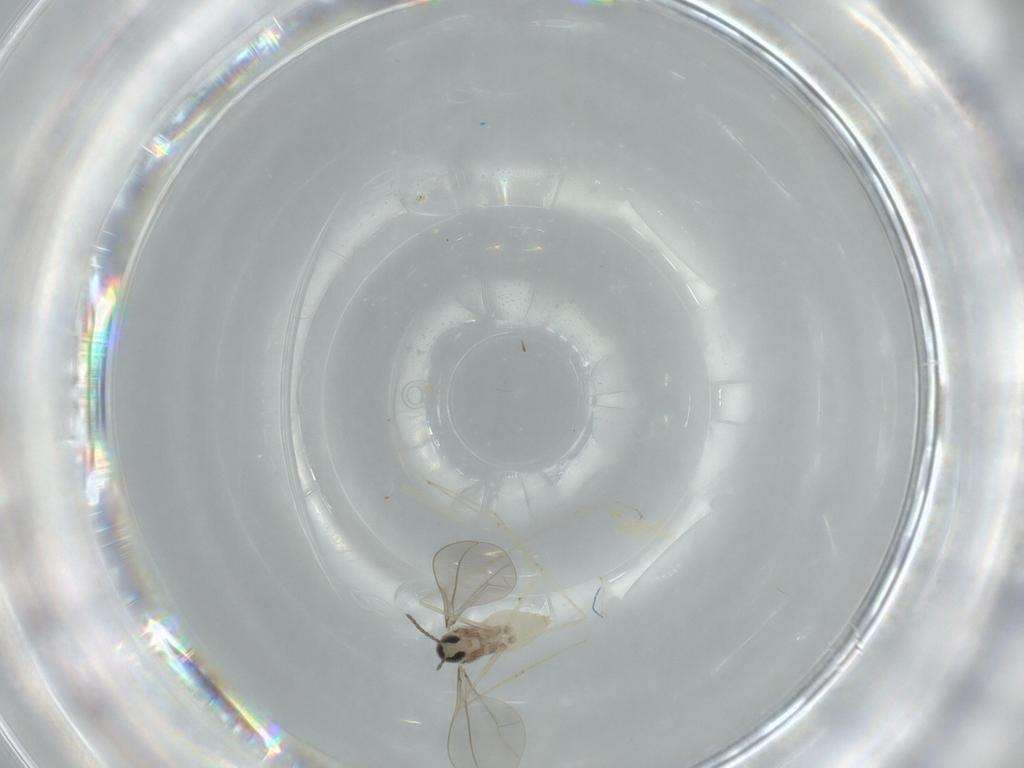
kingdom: Animalia
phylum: Arthropoda
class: Insecta
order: Diptera
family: Cecidomyiidae
